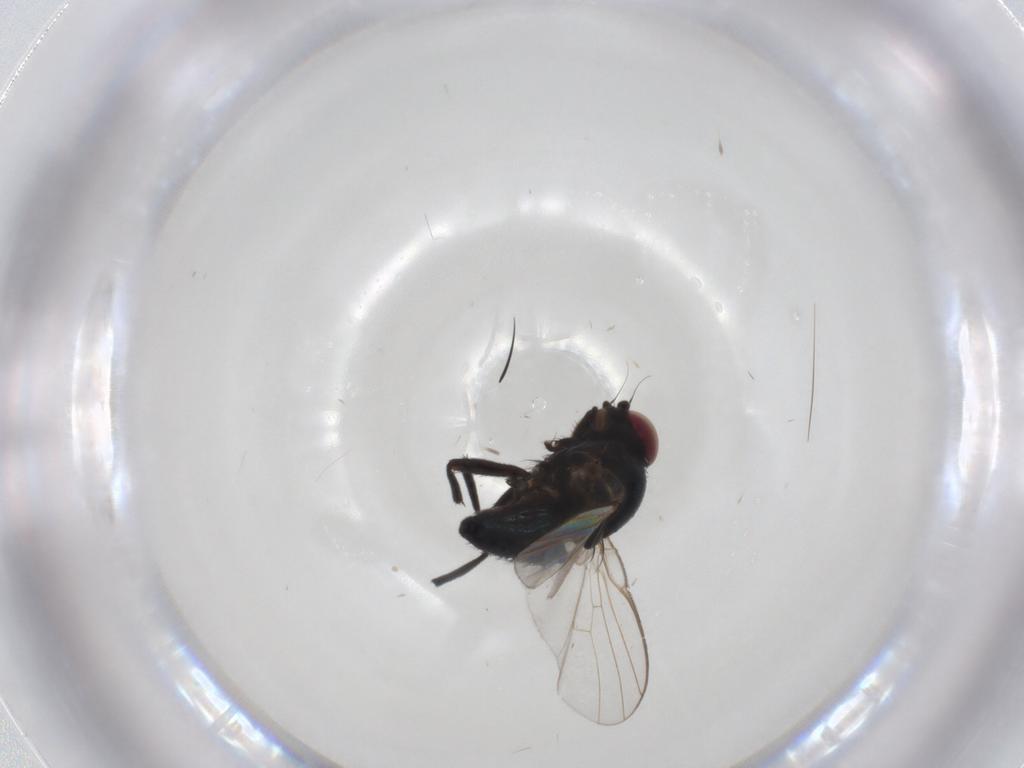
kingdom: Animalia
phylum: Arthropoda
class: Insecta
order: Diptera
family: Agromyzidae
